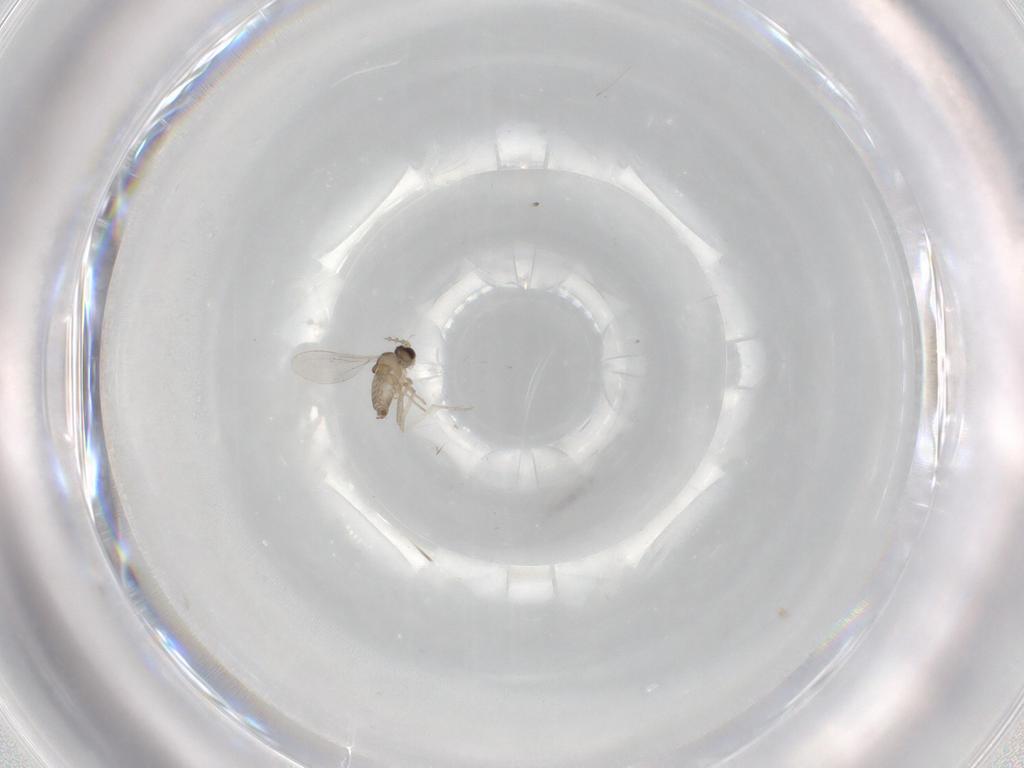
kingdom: Animalia
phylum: Arthropoda
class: Insecta
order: Diptera
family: Cecidomyiidae
